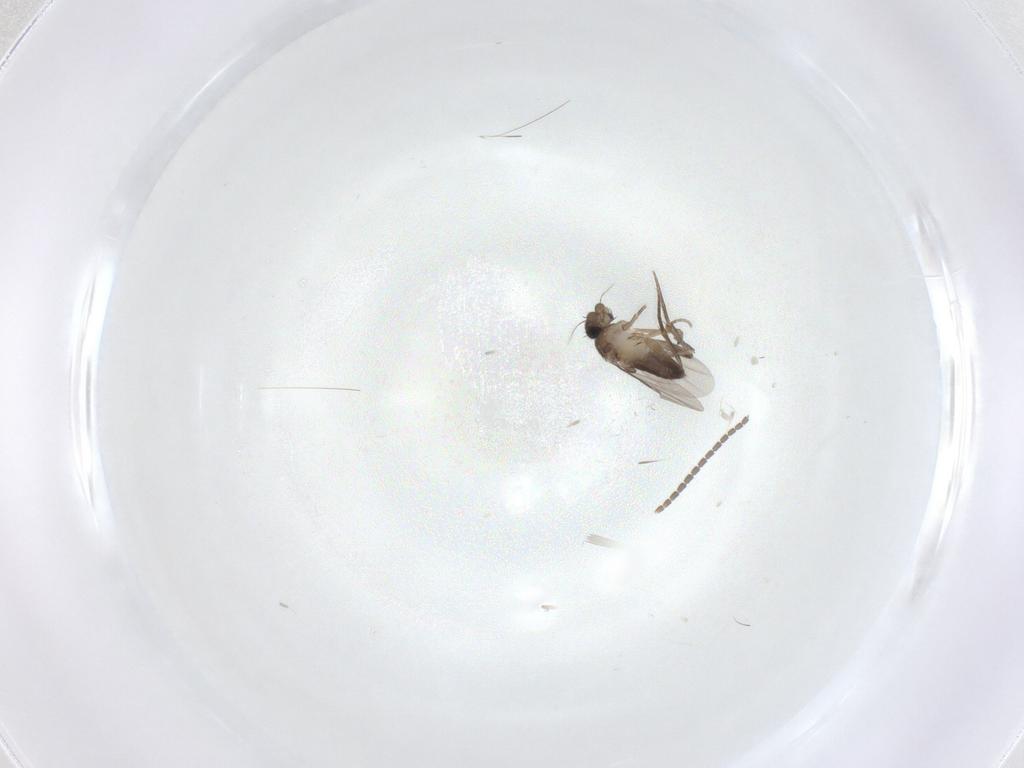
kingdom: Animalia
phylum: Arthropoda
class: Insecta
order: Diptera
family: Phoridae
